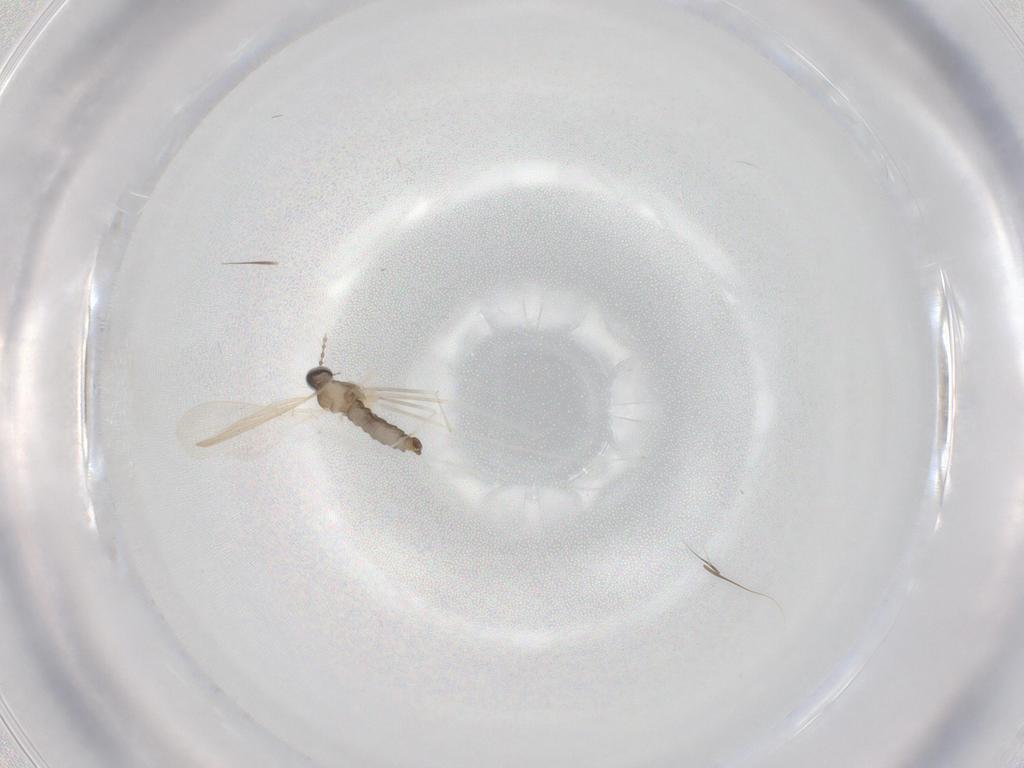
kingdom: Animalia
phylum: Arthropoda
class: Insecta
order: Diptera
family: Cecidomyiidae
